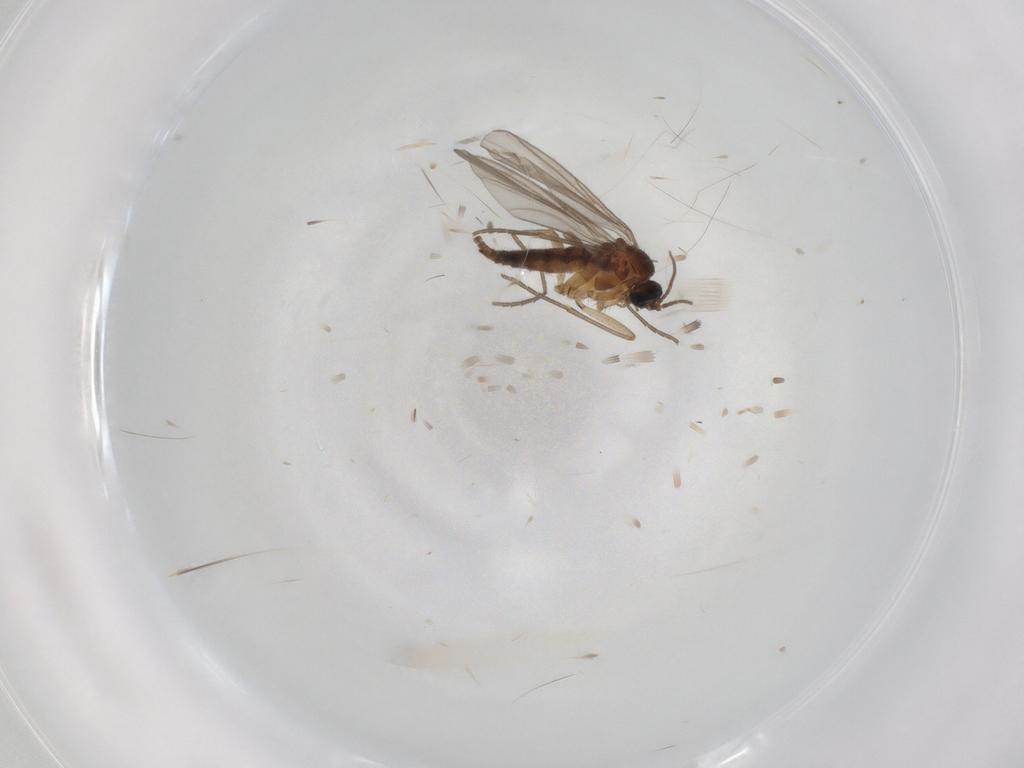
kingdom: Animalia
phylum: Arthropoda
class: Insecta
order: Diptera
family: Sciaridae
